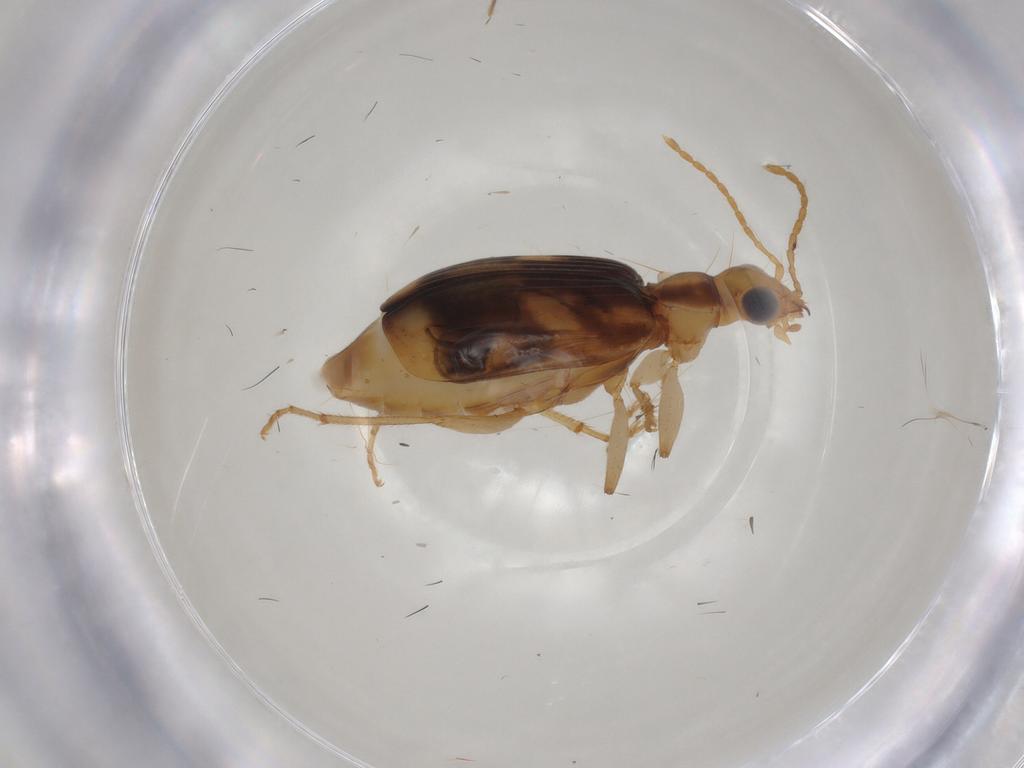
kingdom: Animalia
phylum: Arthropoda
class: Insecta
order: Coleoptera
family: Carabidae
